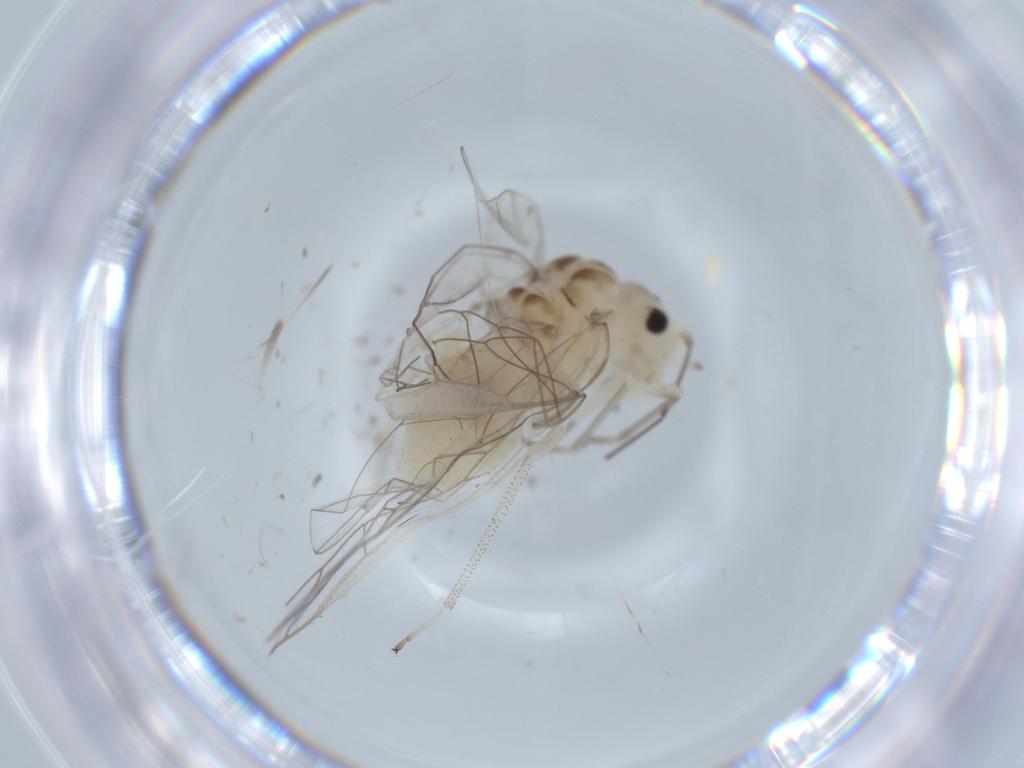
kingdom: Animalia
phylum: Arthropoda
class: Insecta
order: Psocodea
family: Stenopsocidae
